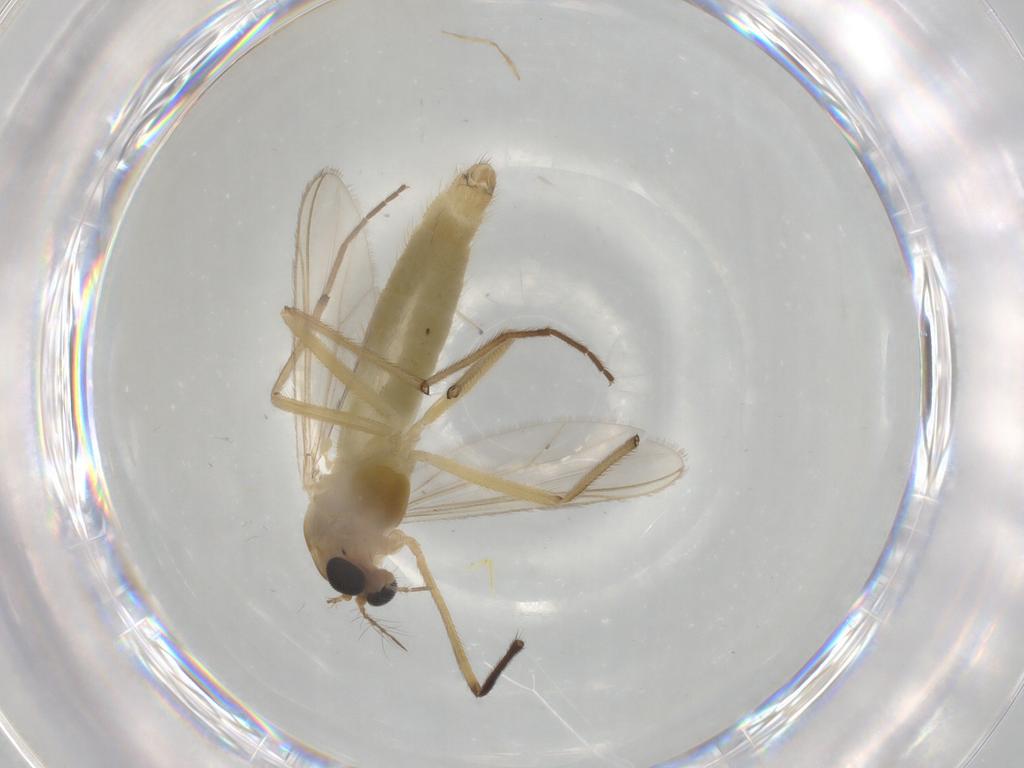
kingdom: Animalia
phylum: Arthropoda
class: Insecta
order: Diptera
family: Chironomidae
